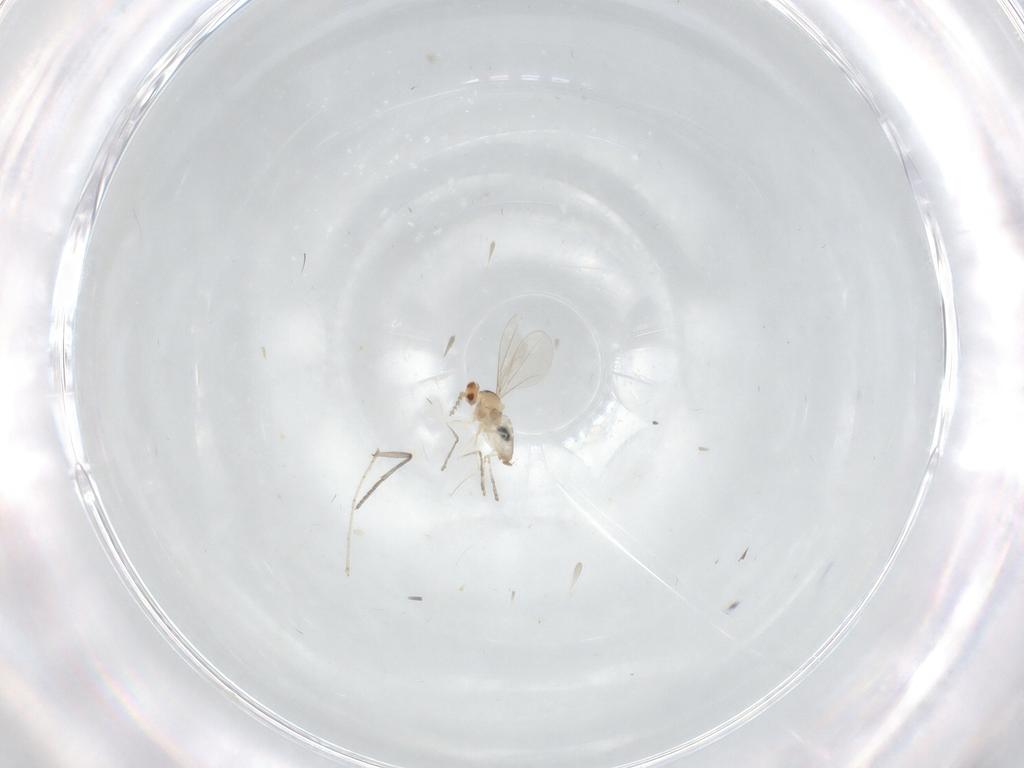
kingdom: Animalia
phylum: Arthropoda
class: Insecta
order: Diptera
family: Cecidomyiidae
